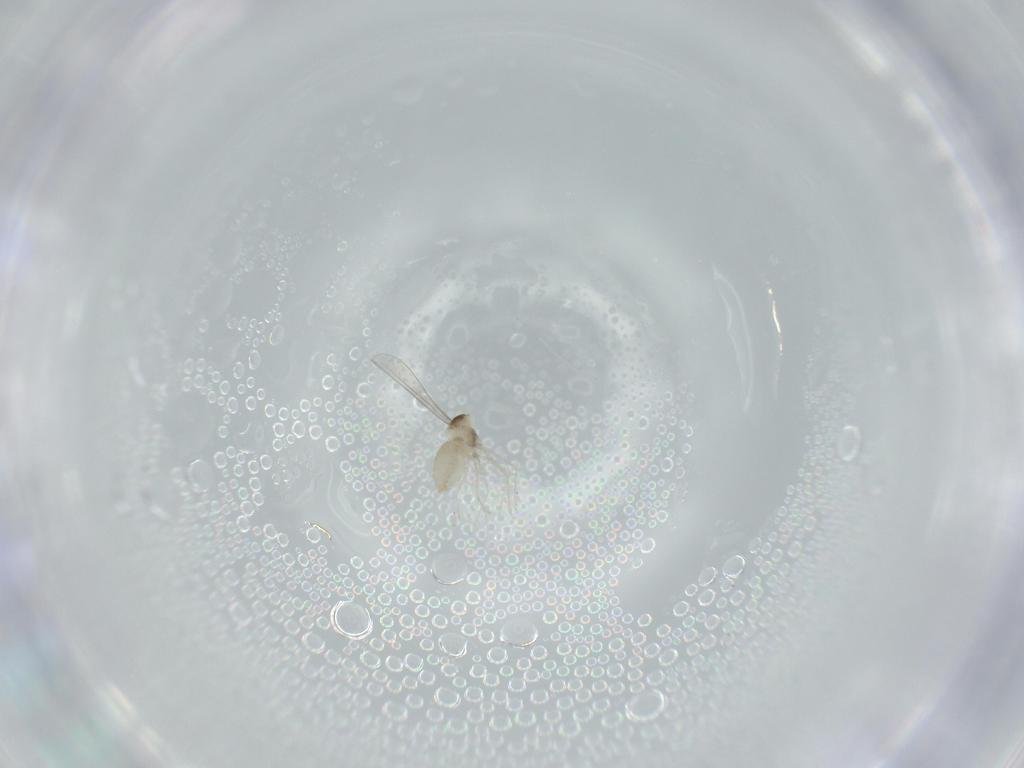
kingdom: Animalia
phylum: Arthropoda
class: Insecta
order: Diptera
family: Cecidomyiidae
